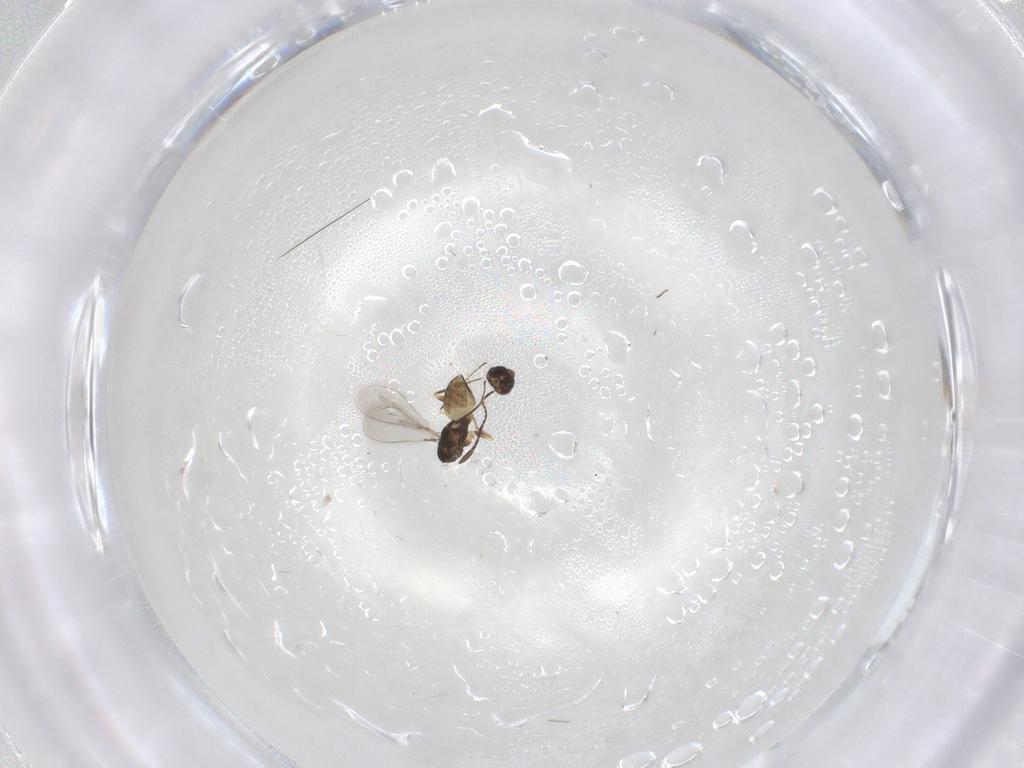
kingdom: Animalia
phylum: Arthropoda
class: Insecta
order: Hymenoptera
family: Mymaridae
